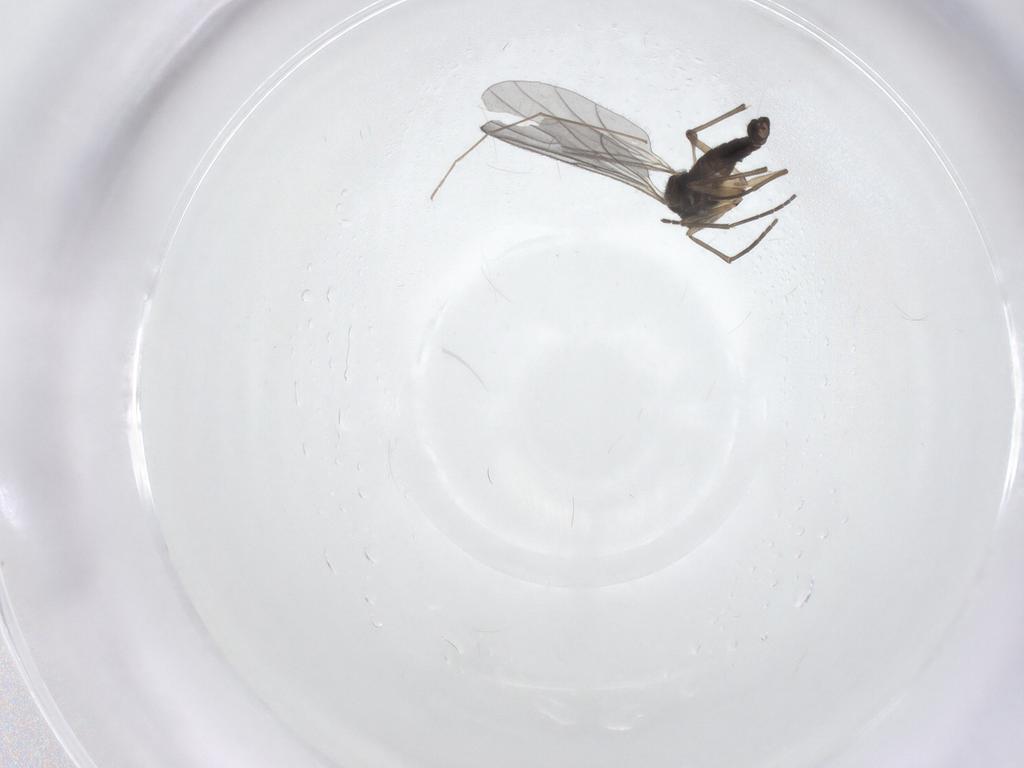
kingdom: Animalia
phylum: Arthropoda
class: Insecta
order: Diptera
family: Sciaridae
